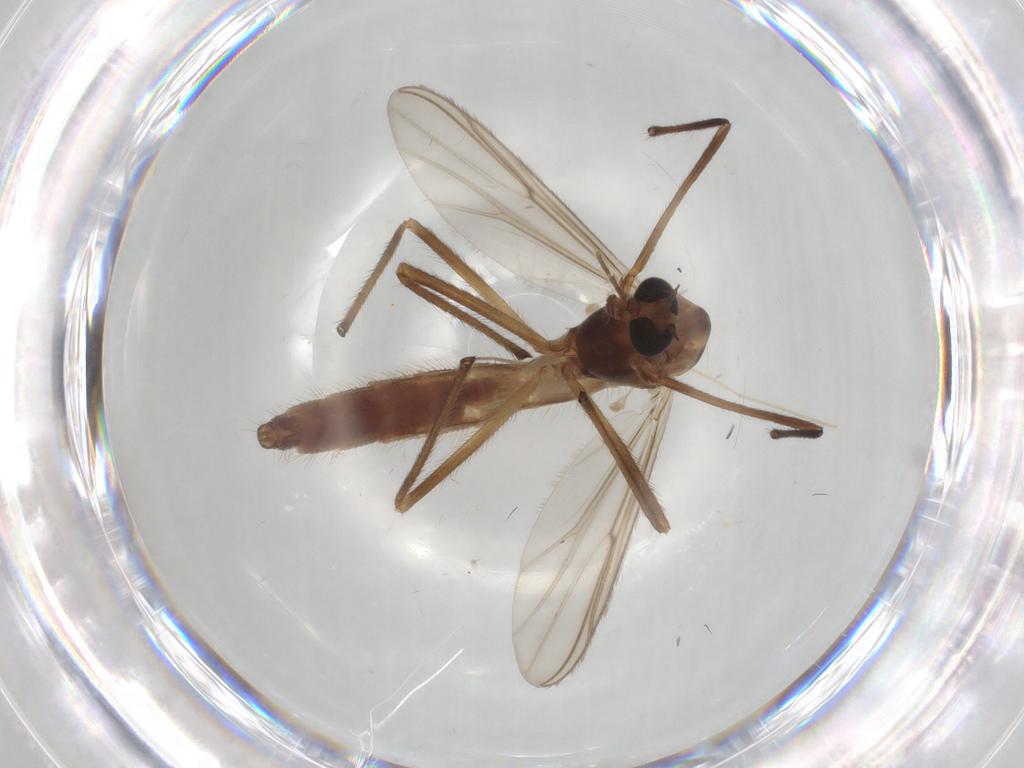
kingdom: Animalia
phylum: Arthropoda
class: Insecta
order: Diptera
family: Chironomidae
